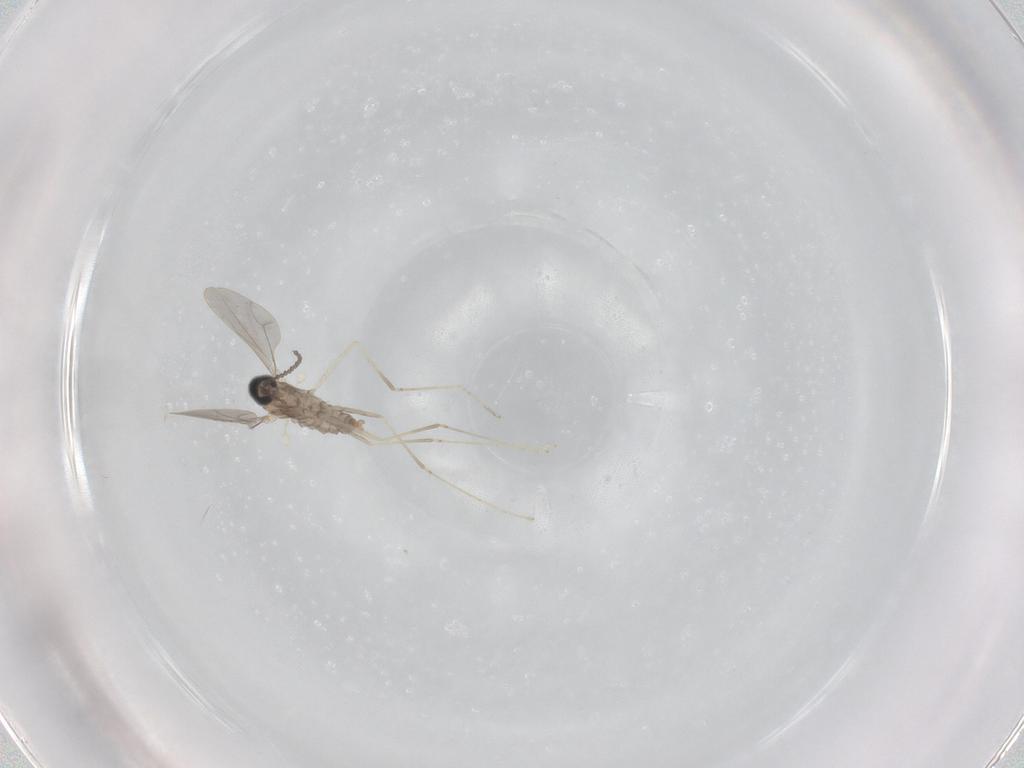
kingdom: Animalia
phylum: Arthropoda
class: Insecta
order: Diptera
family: Cecidomyiidae
